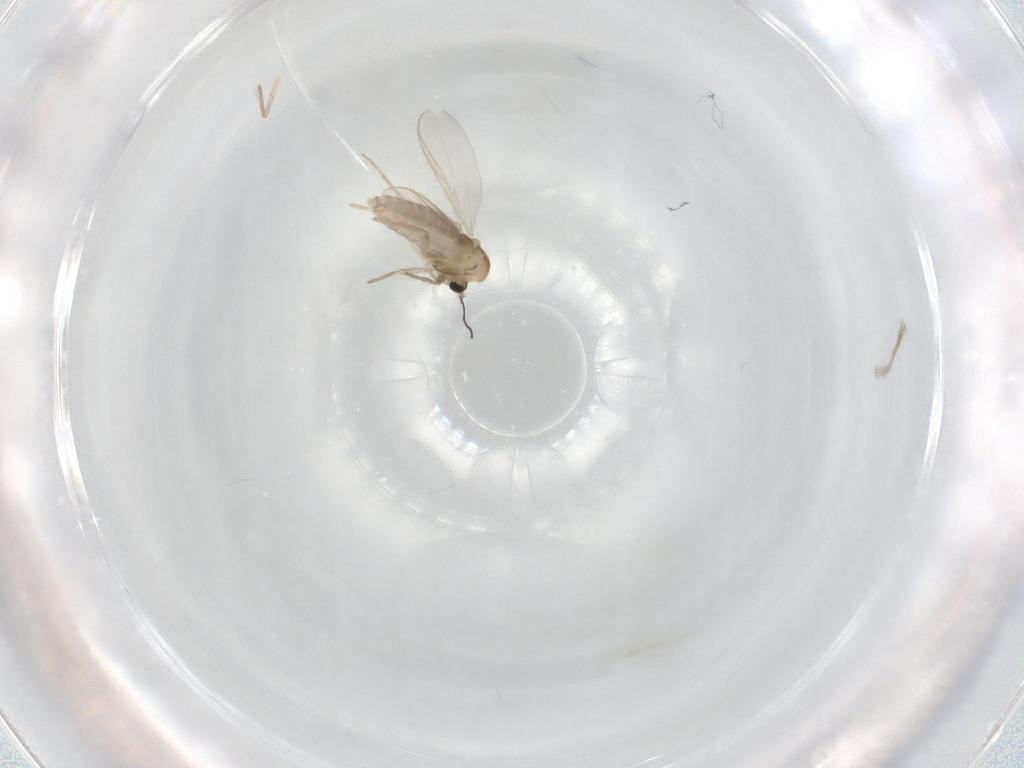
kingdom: Animalia
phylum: Arthropoda
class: Insecta
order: Diptera
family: Chironomidae
